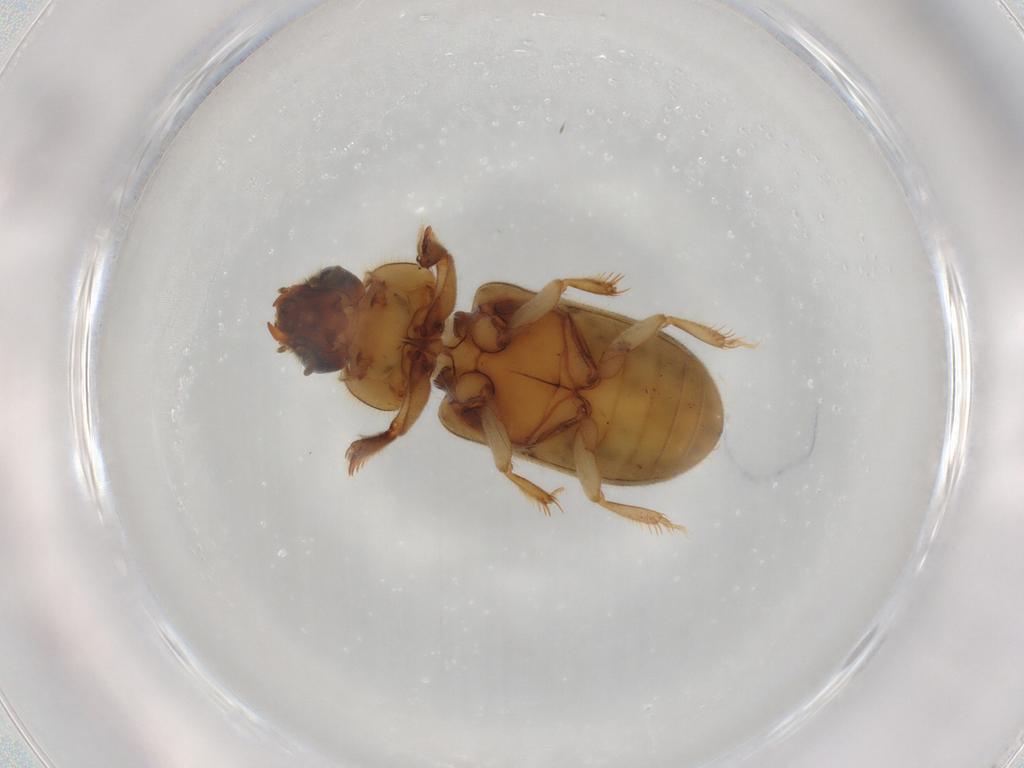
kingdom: Animalia
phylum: Arthropoda
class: Insecta
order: Coleoptera
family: Heteroceridae
